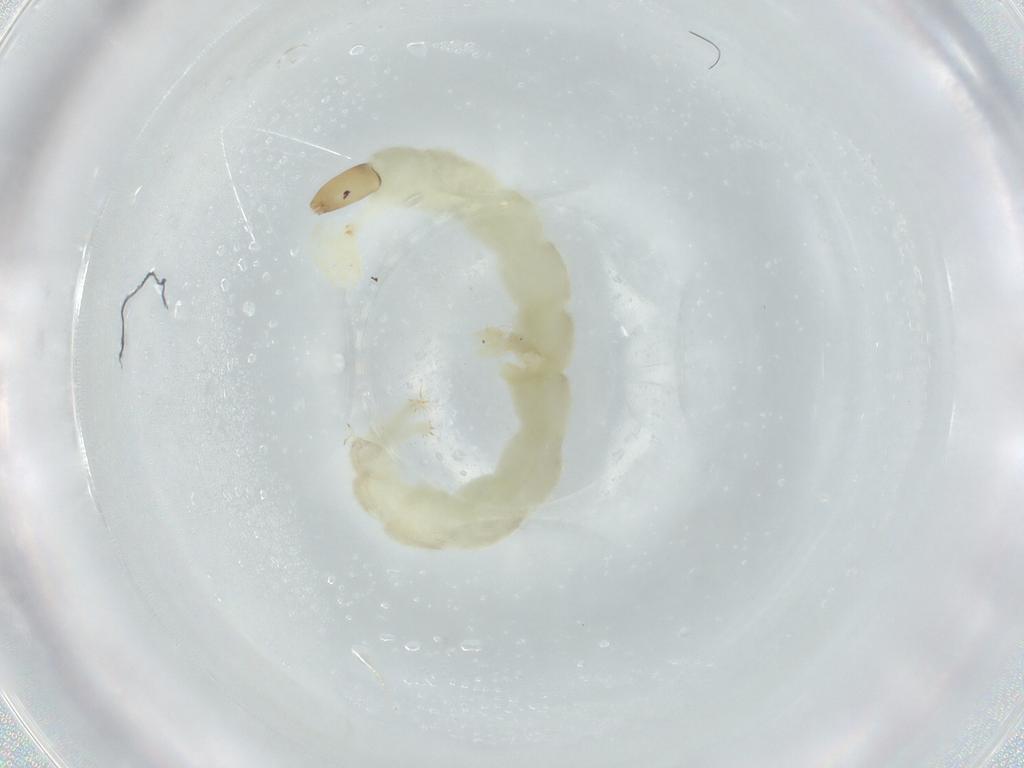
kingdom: Animalia
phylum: Arthropoda
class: Insecta
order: Diptera
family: Chironomidae
